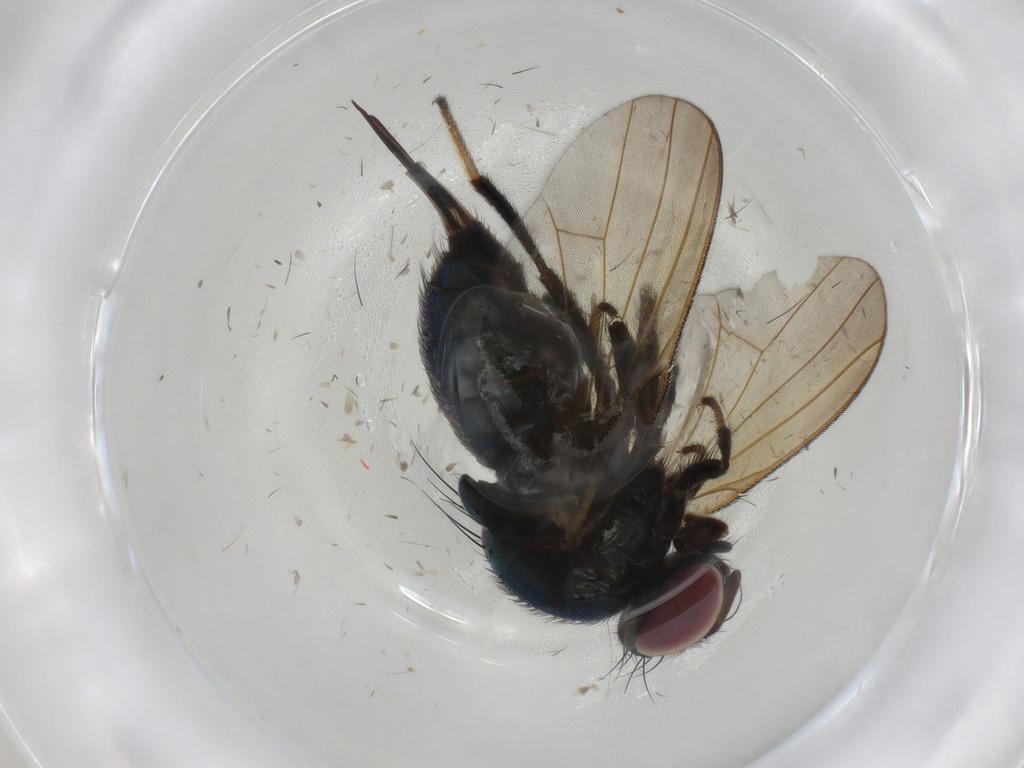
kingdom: Animalia
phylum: Arthropoda
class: Insecta
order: Diptera
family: Lonchaeidae
